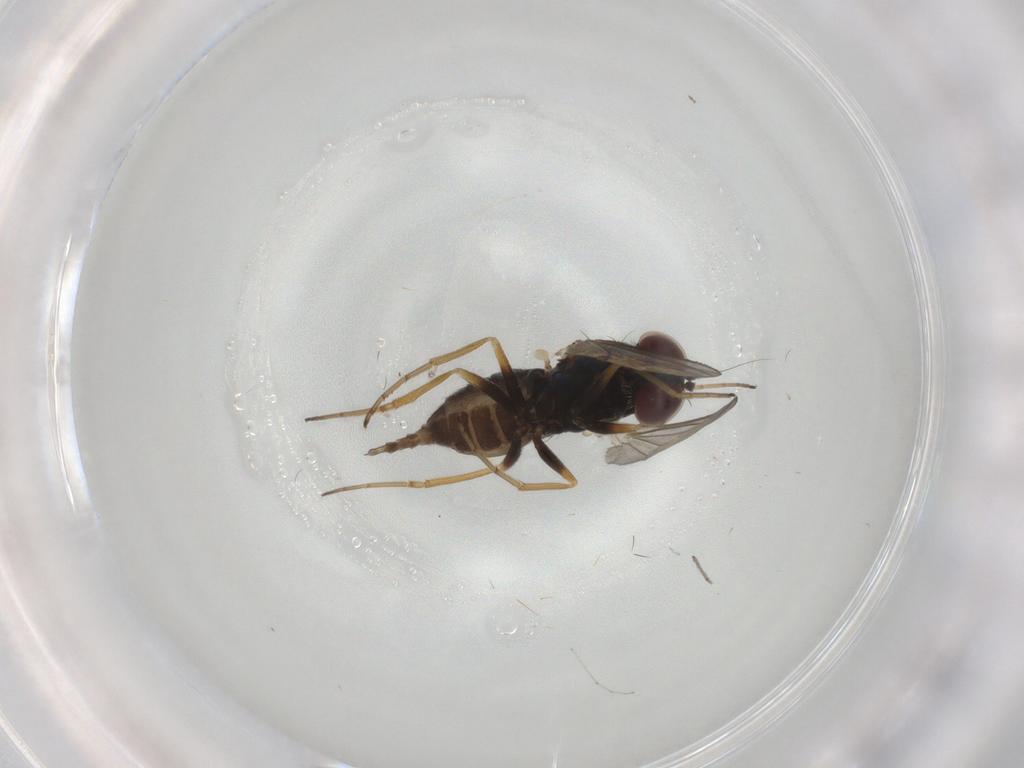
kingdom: Animalia
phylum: Arthropoda
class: Insecta
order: Diptera
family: Dolichopodidae
